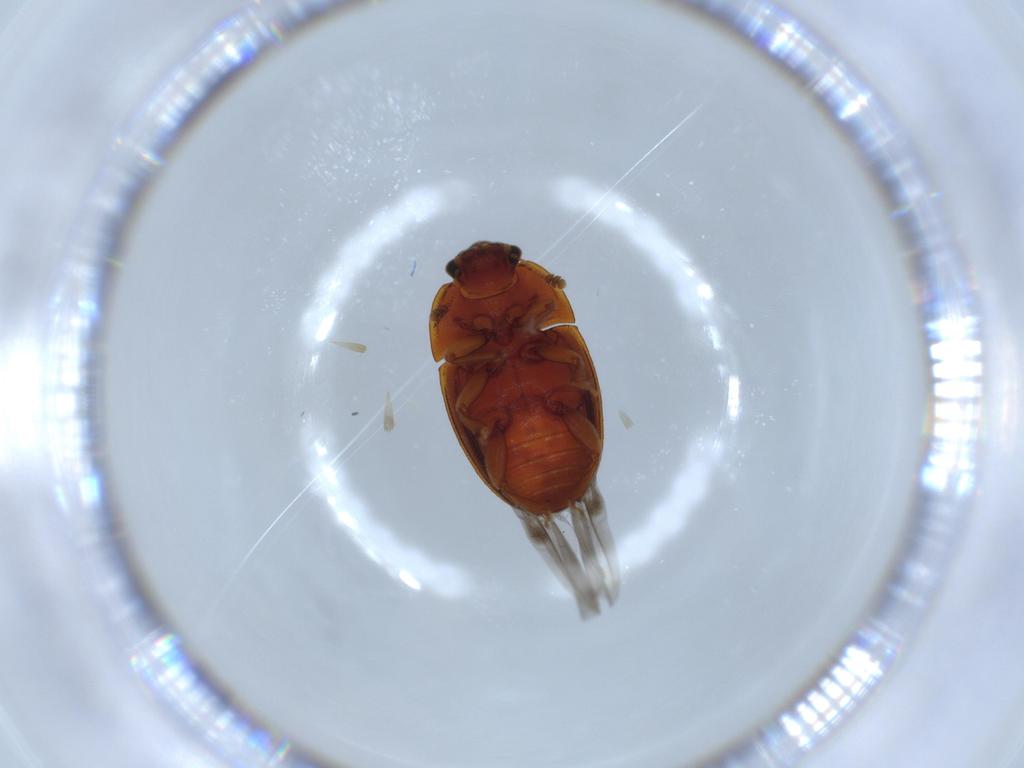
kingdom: Animalia
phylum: Arthropoda
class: Insecta
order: Coleoptera
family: Nitidulidae
